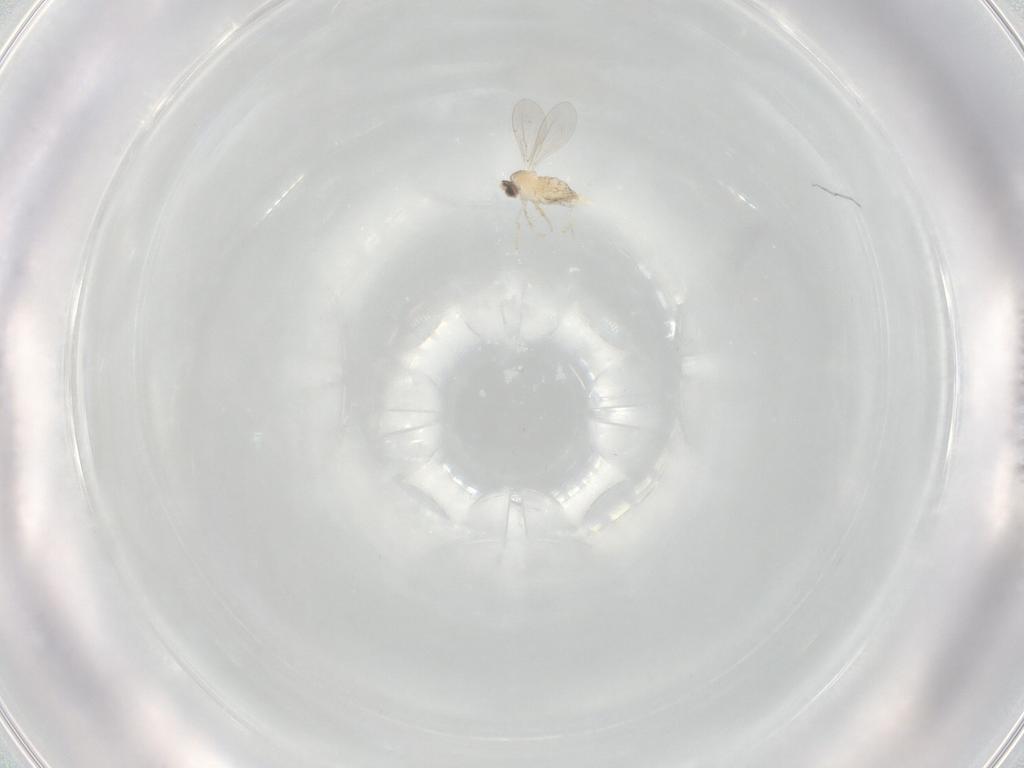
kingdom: Animalia
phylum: Arthropoda
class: Insecta
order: Diptera
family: Cecidomyiidae
